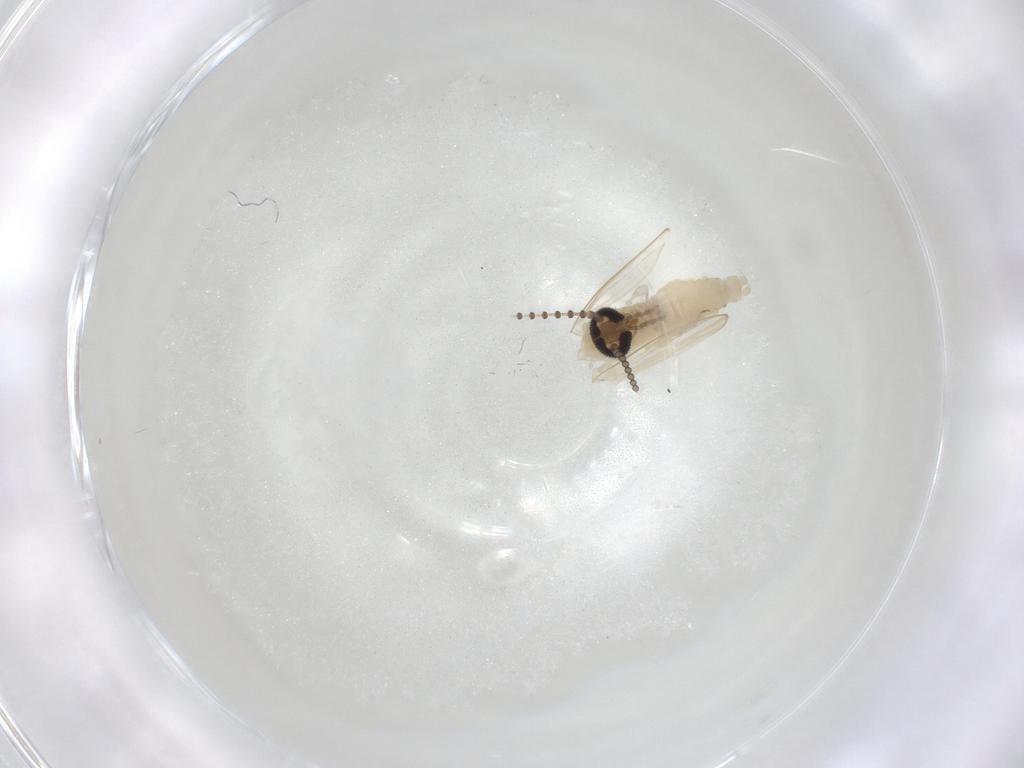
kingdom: Animalia
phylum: Arthropoda
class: Insecta
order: Diptera
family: Psychodidae
